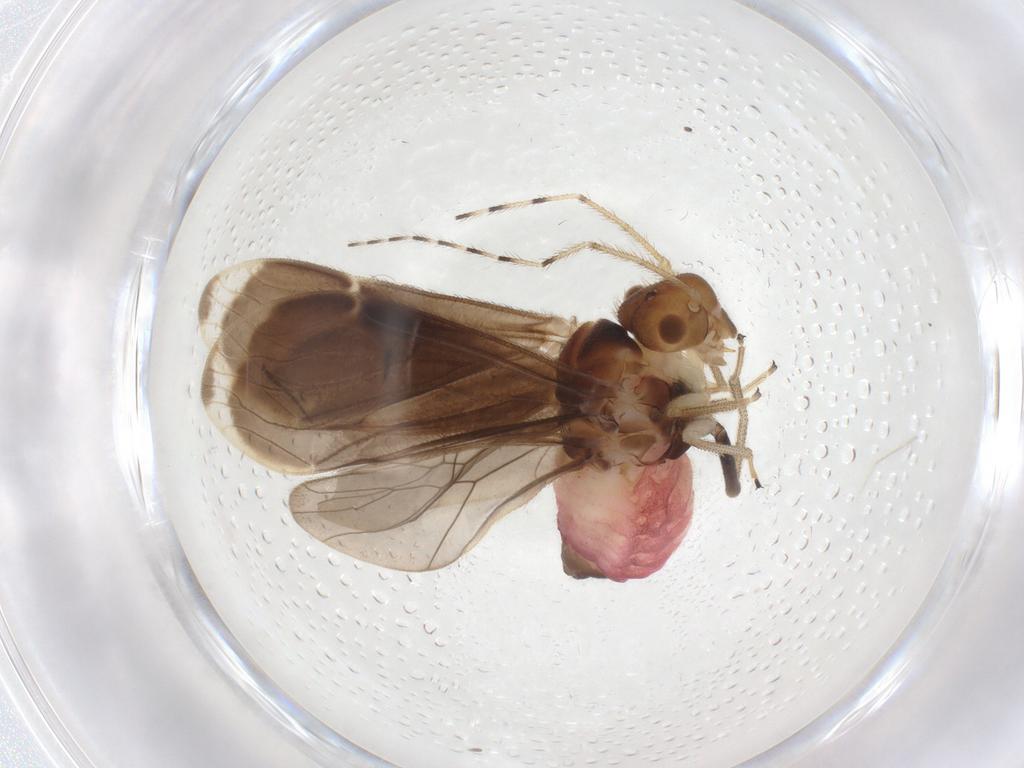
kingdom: Animalia
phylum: Arthropoda
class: Insecta
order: Psocodea
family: Amphipsocidae
